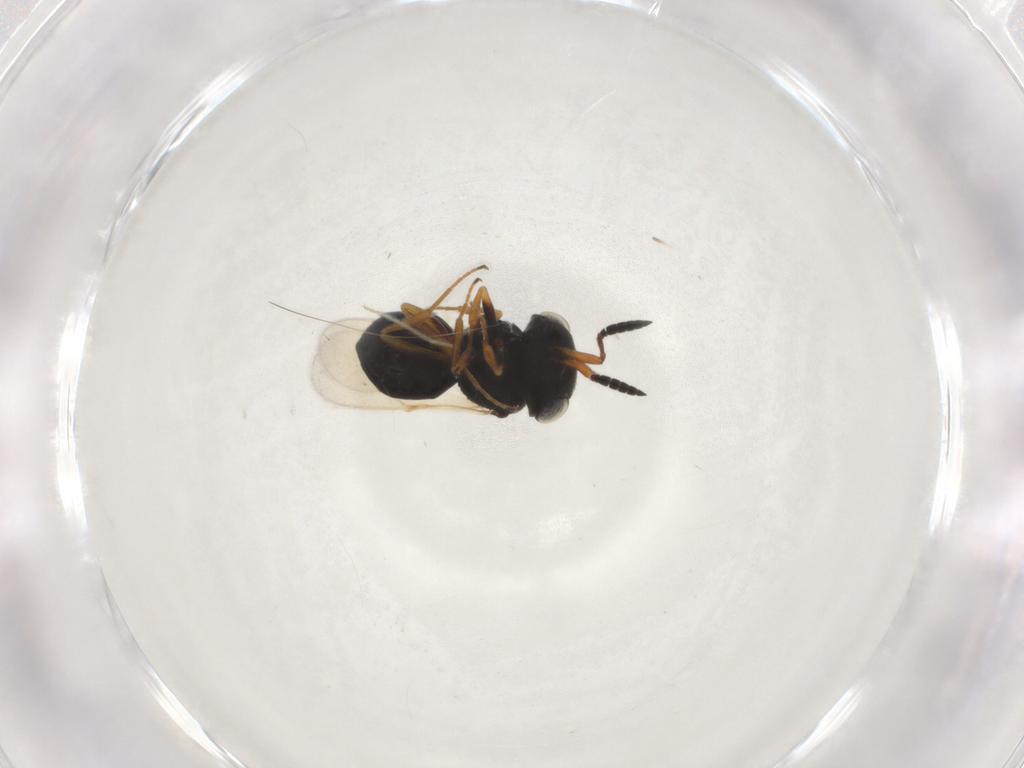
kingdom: Animalia
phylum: Arthropoda
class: Insecta
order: Hymenoptera
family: Scelionidae
